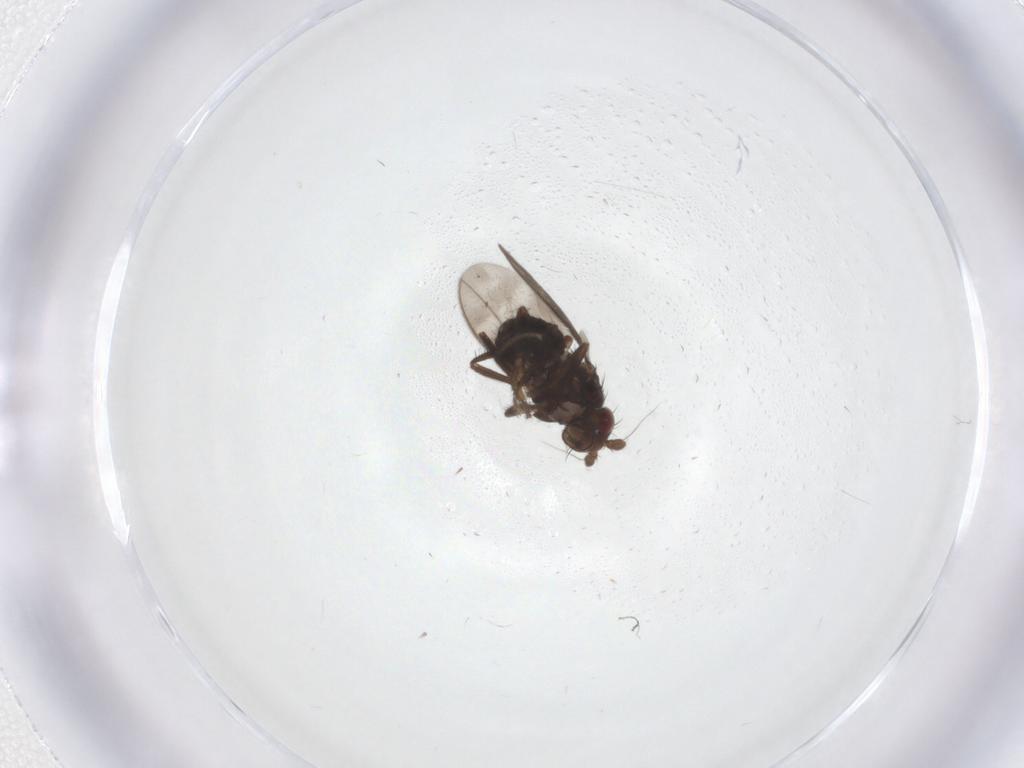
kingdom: Animalia
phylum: Arthropoda
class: Insecta
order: Diptera
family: Sphaeroceridae
